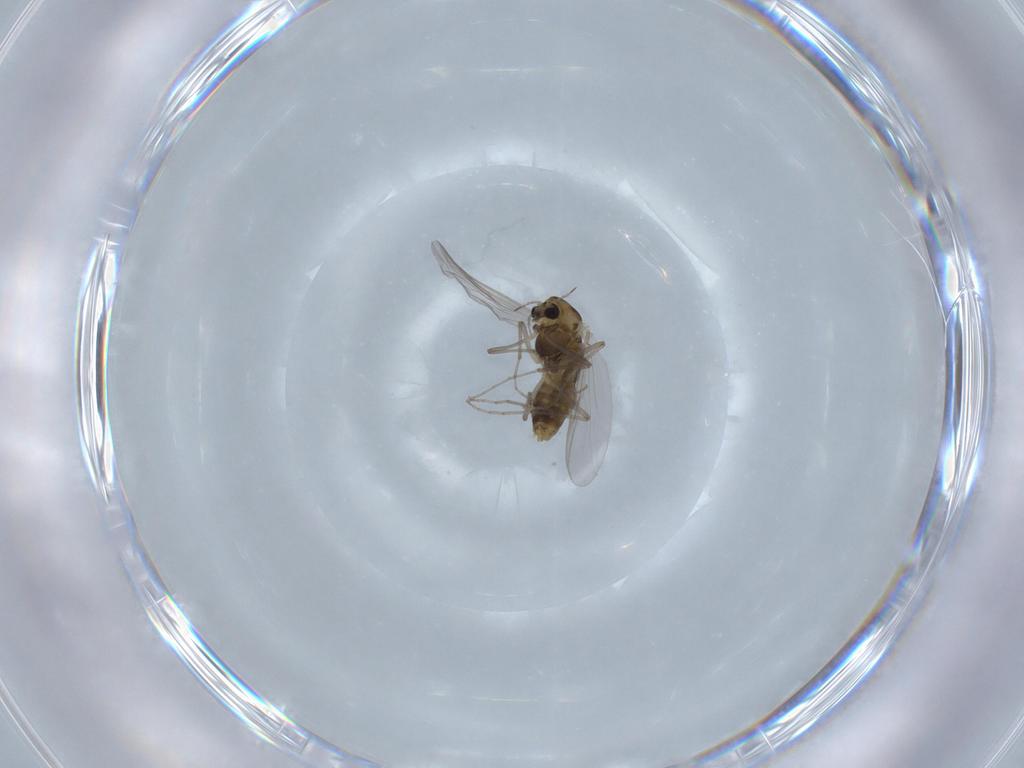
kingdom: Animalia
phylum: Arthropoda
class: Insecta
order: Diptera
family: Chironomidae
